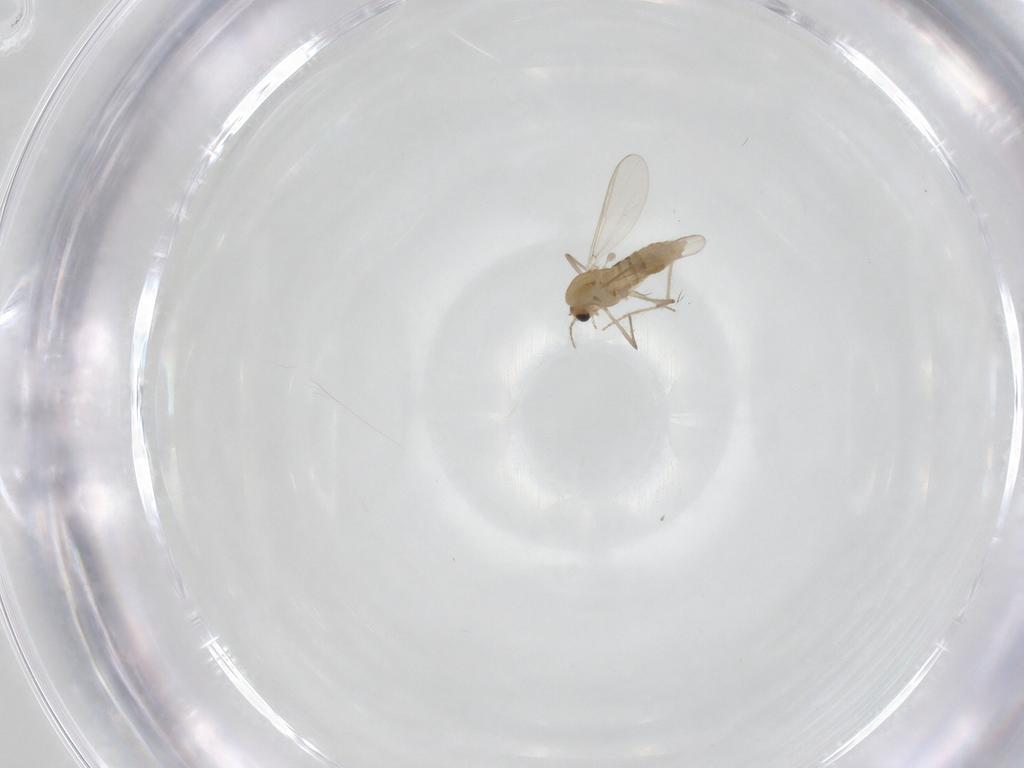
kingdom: Animalia
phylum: Arthropoda
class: Insecta
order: Diptera
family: Chironomidae
